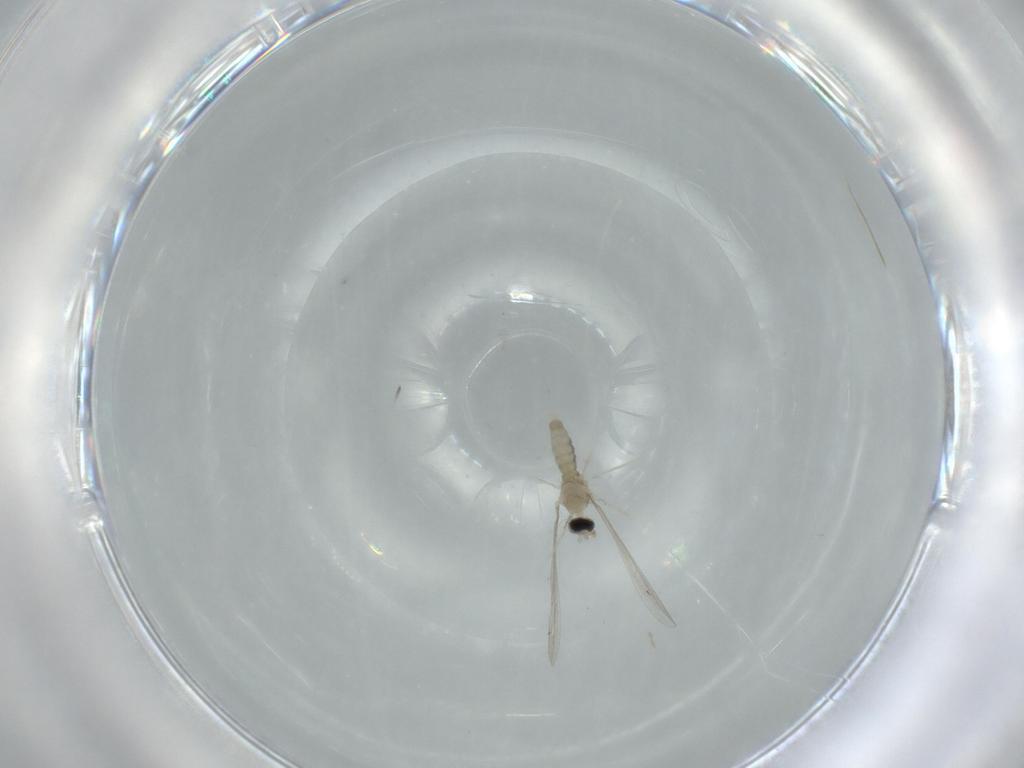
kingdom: Animalia
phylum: Arthropoda
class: Insecta
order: Diptera
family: Cecidomyiidae
